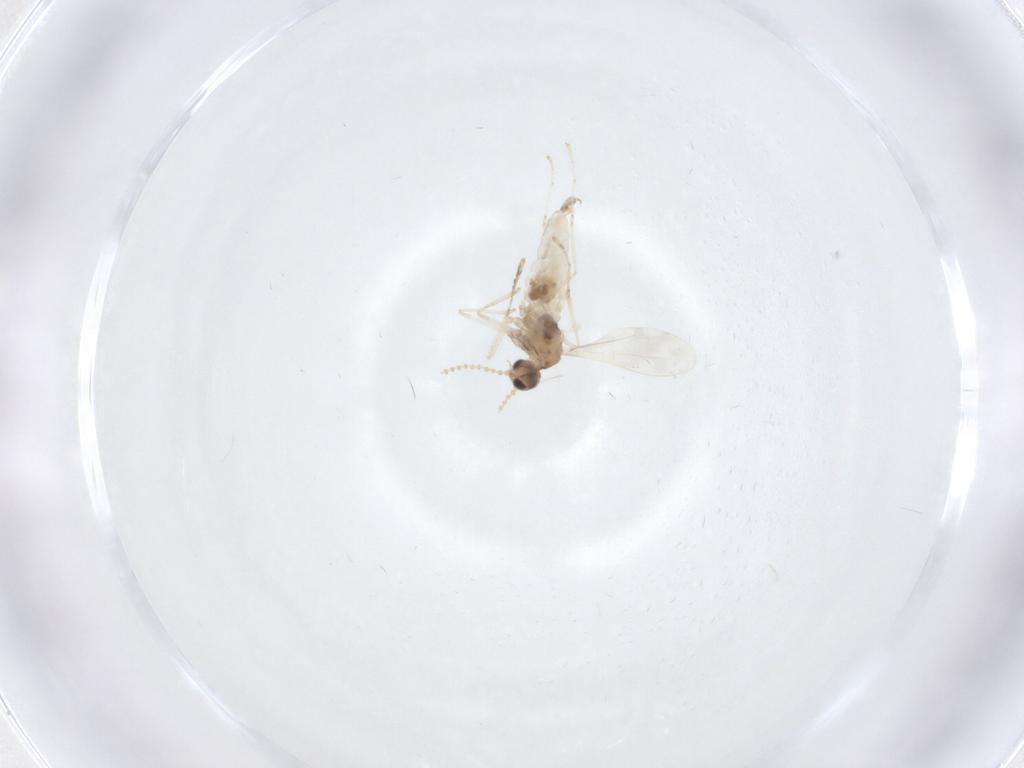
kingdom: Animalia
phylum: Arthropoda
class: Insecta
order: Diptera
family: Cecidomyiidae
